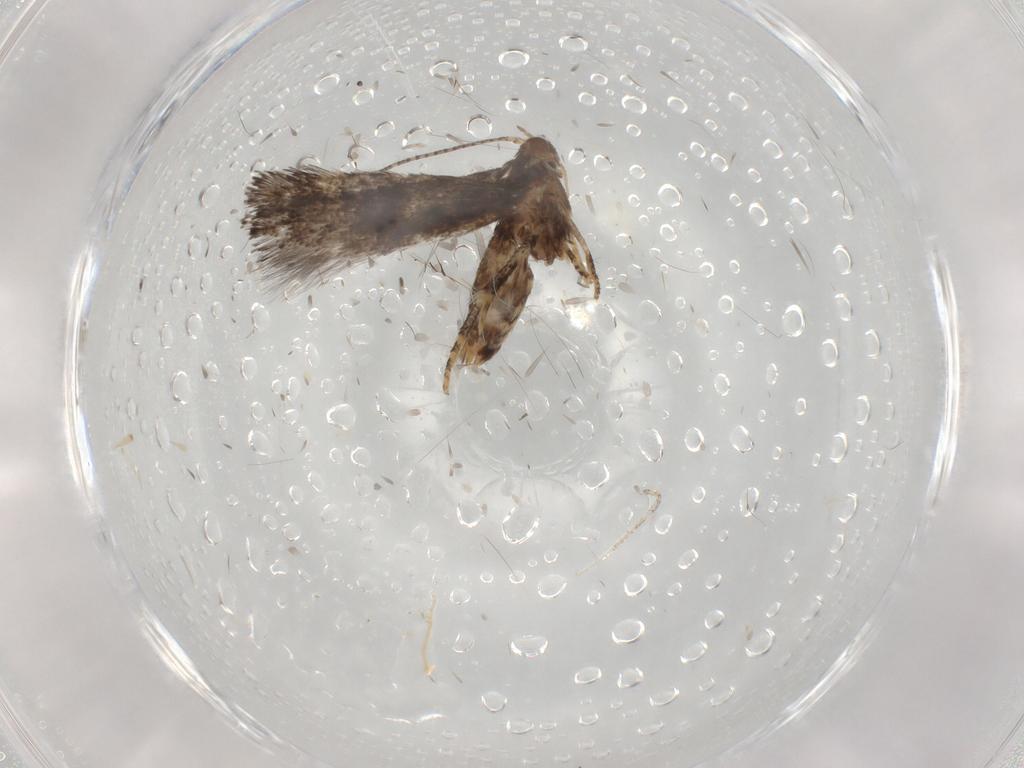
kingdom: Animalia
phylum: Arthropoda
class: Insecta
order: Lepidoptera
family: Erebidae
